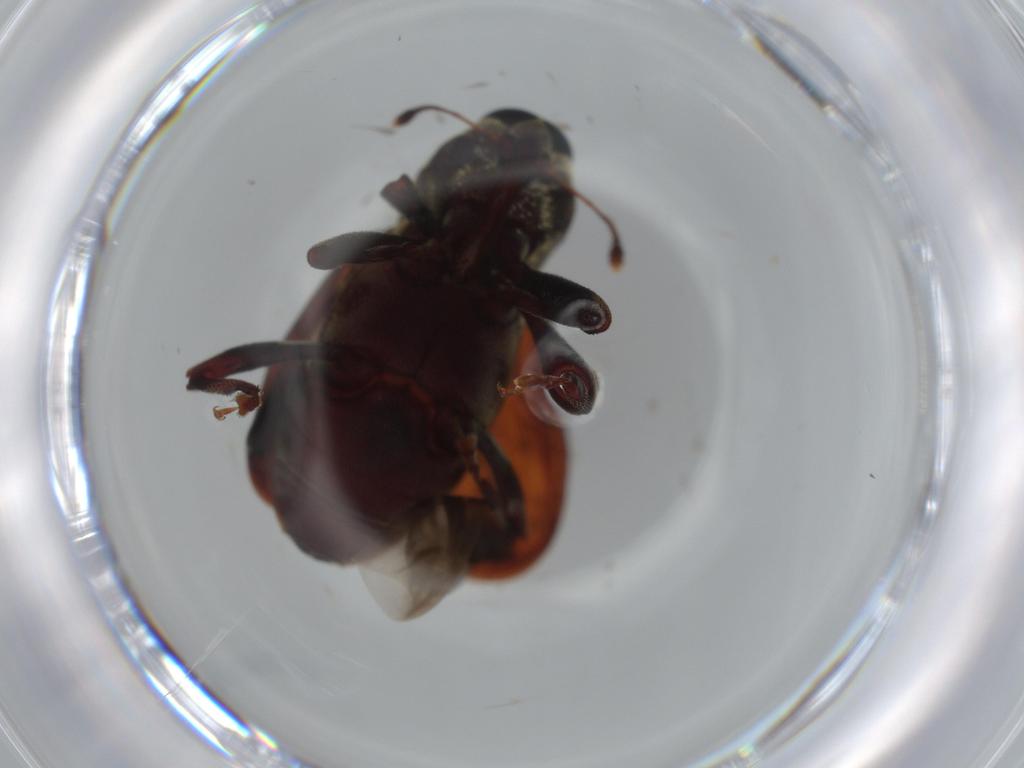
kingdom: Animalia
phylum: Arthropoda
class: Insecta
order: Coleoptera
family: Curculionidae
